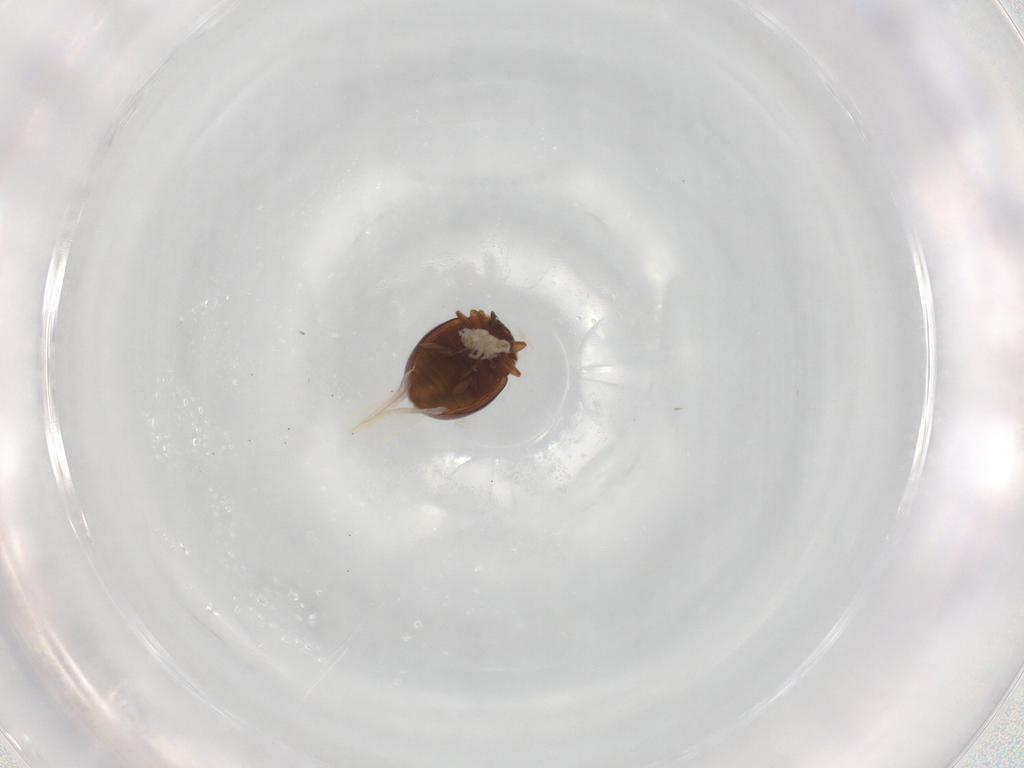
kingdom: Animalia
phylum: Arthropoda
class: Insecta
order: Coleoptera
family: Coccinellidae
